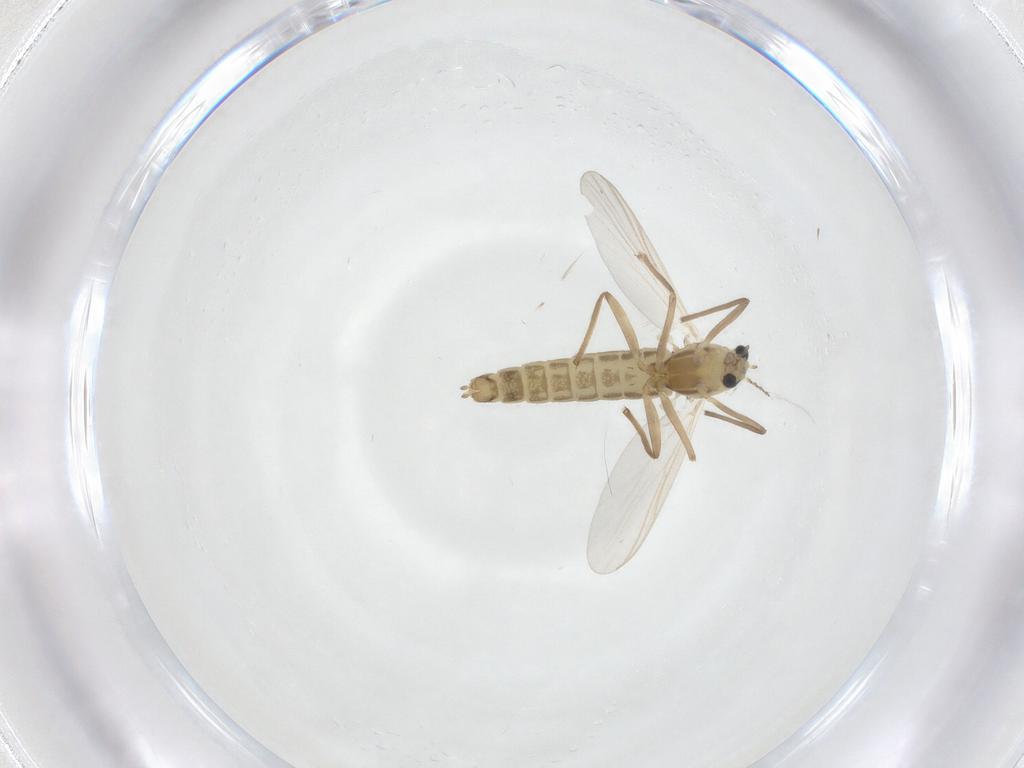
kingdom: Animalia
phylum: Arthropoda
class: Insecta
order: Diptera
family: Chironomidae
